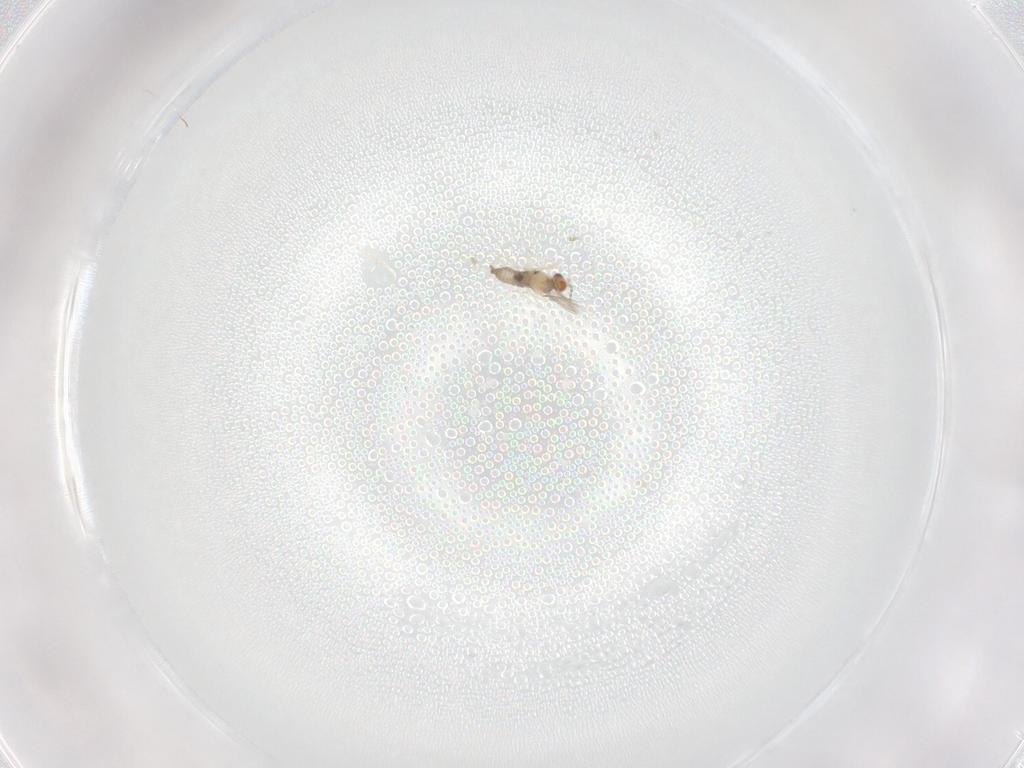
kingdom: Animalia
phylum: Arthropoda
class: Insecta
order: Diptera
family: Cecidomyiidae
